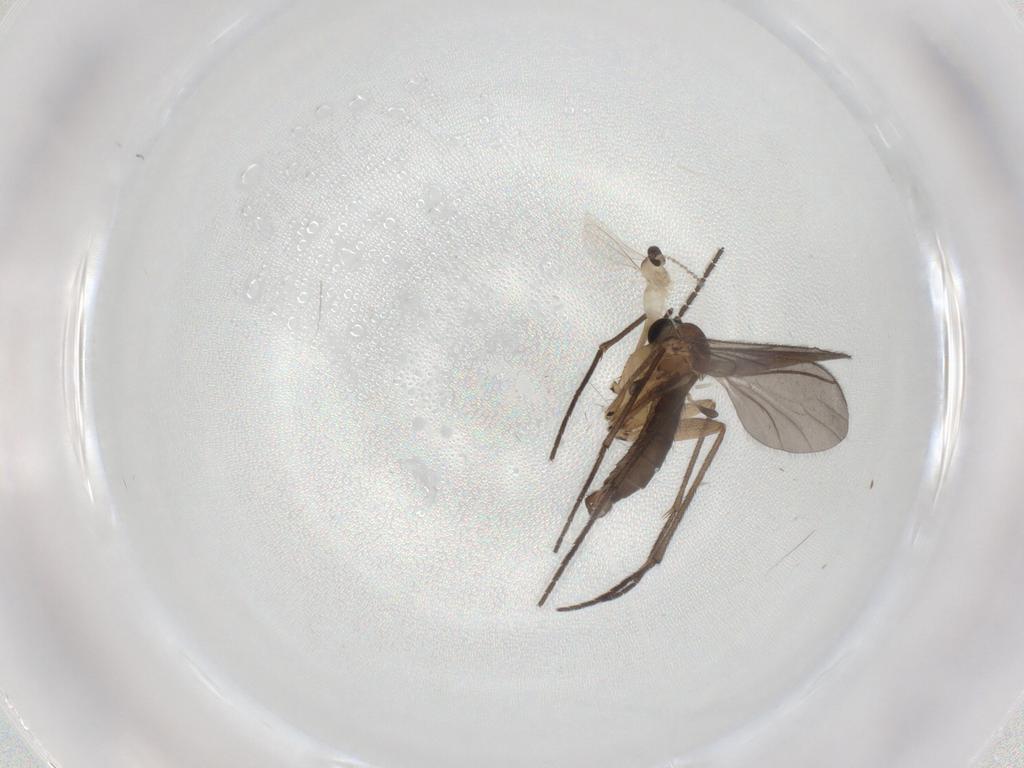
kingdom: Animalia
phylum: Arthropoda
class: Insecta
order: Diptera
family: Cecidomyiidae
